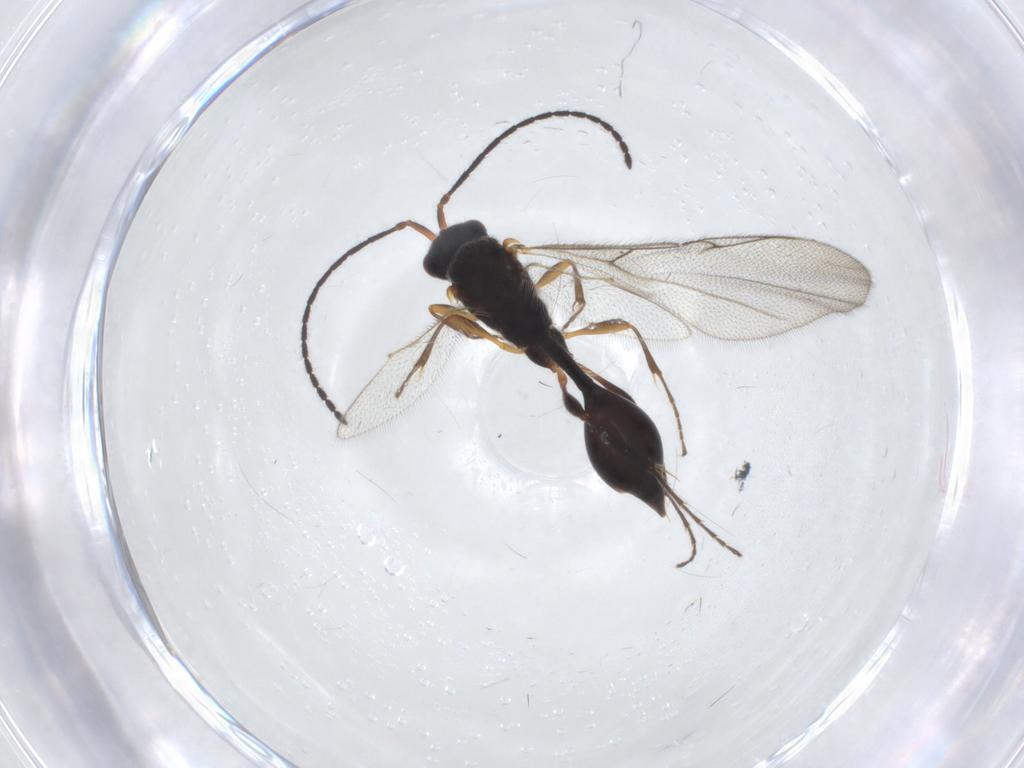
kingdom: Animalia
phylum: Arthropoda
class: Insecta
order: Hymenoptera
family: Diapriidae
